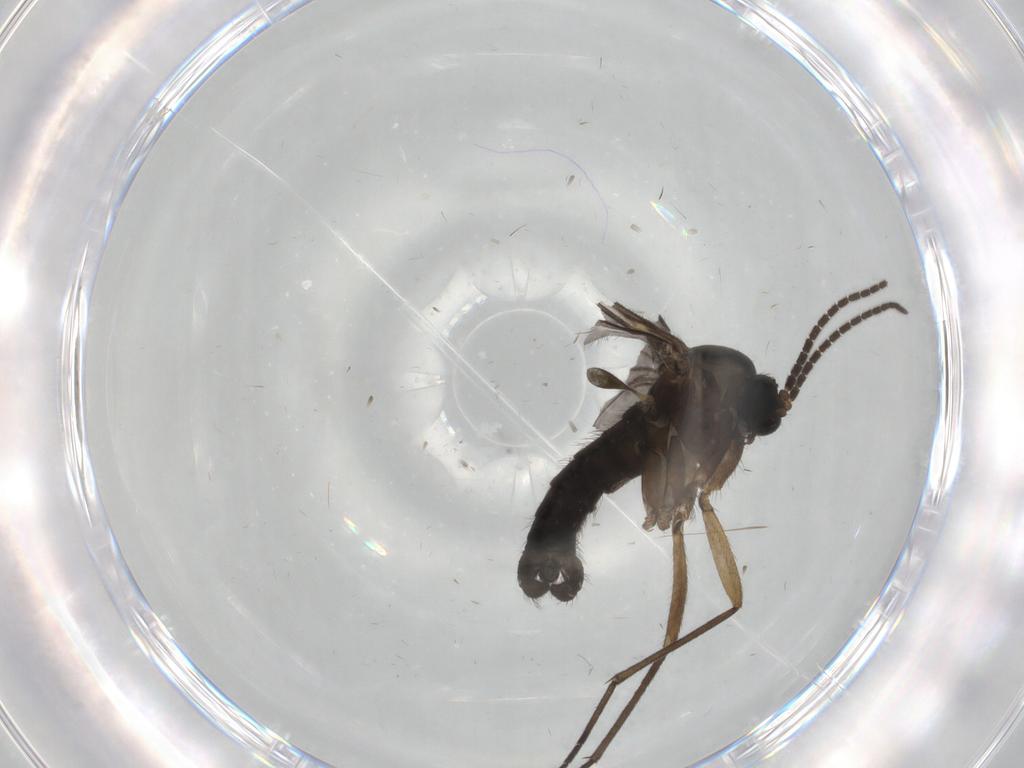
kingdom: Animalia
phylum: Arthropoda
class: Insecta
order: Diptera
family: Sciaridae
